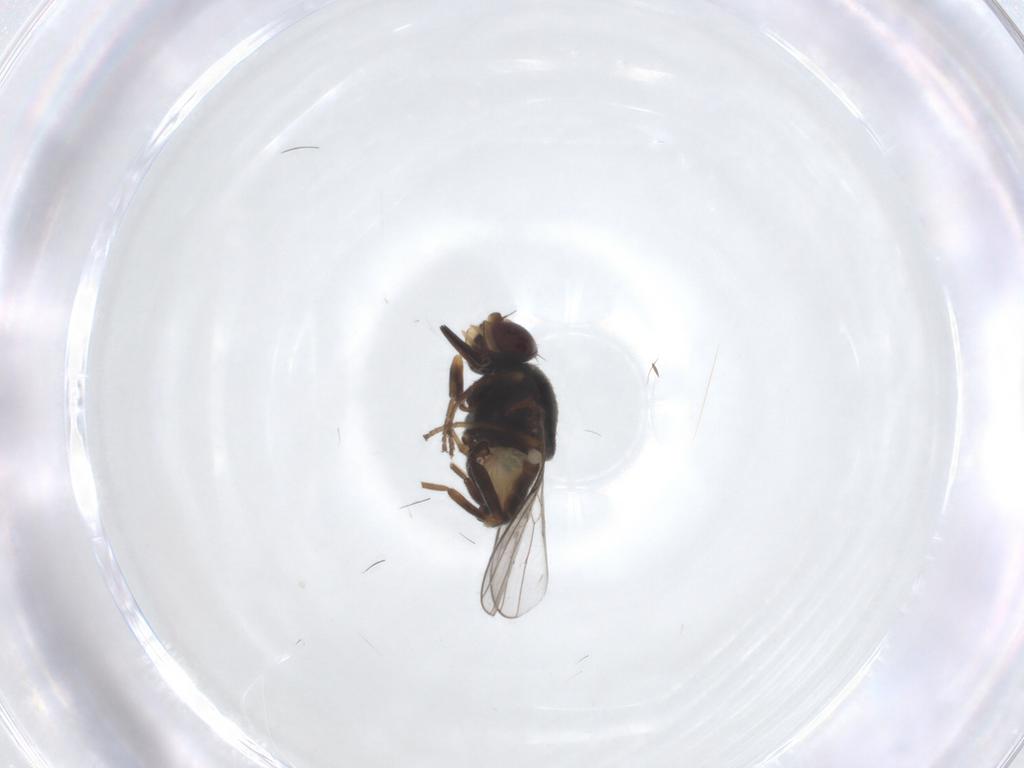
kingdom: Animalia
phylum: Arthropoda
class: Insecta
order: Diptera
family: Chloropidae
